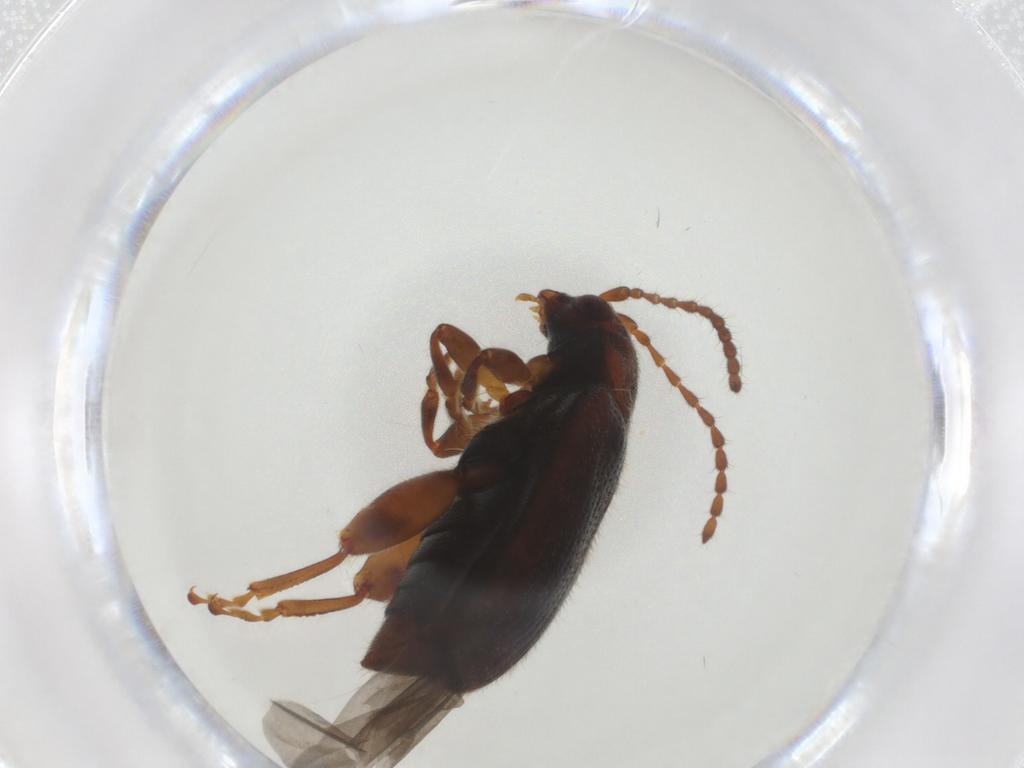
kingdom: Animalia
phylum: Arthropoda
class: Insecta
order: Coleoptera
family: Chrysomelidae
